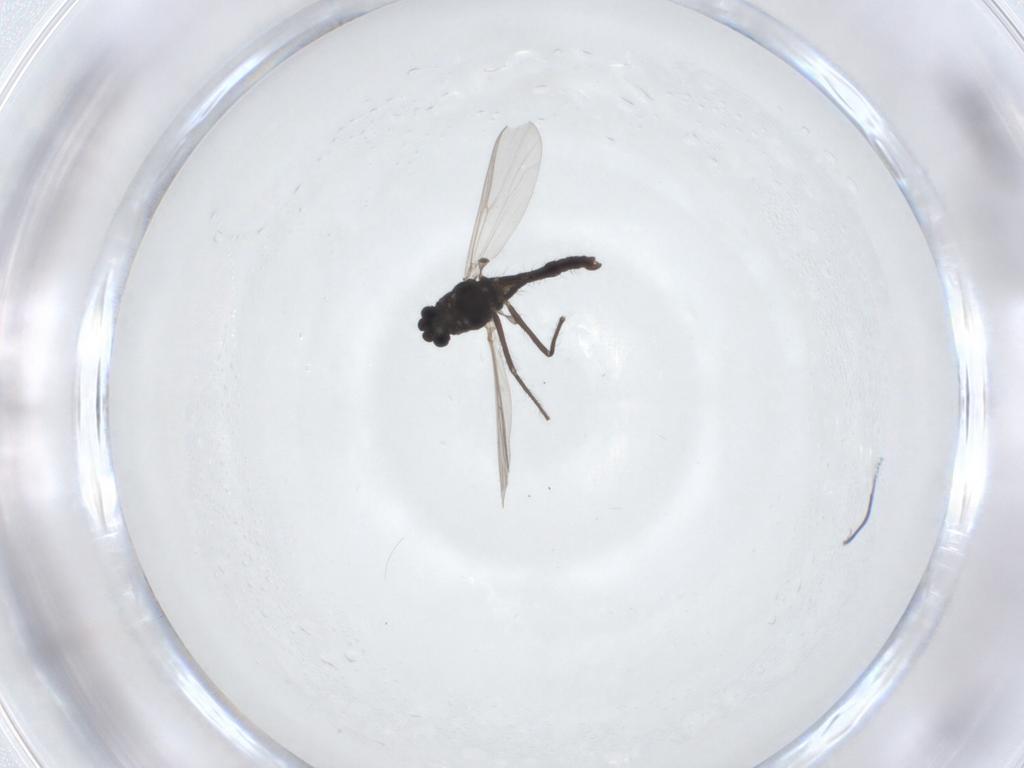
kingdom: Animalia
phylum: Arthropoda
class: Insecta
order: Diptera
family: Chironomidae
